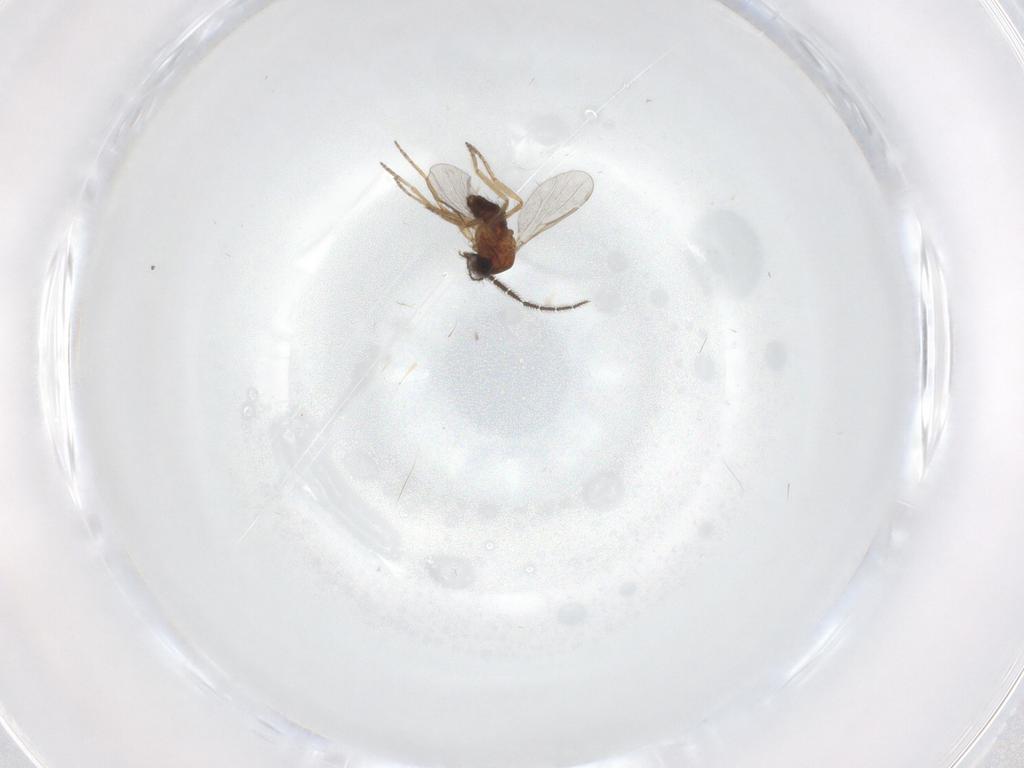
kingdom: Animalia
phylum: Arthropoda
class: Insecta
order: Diptera
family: Ceratopogonidae
